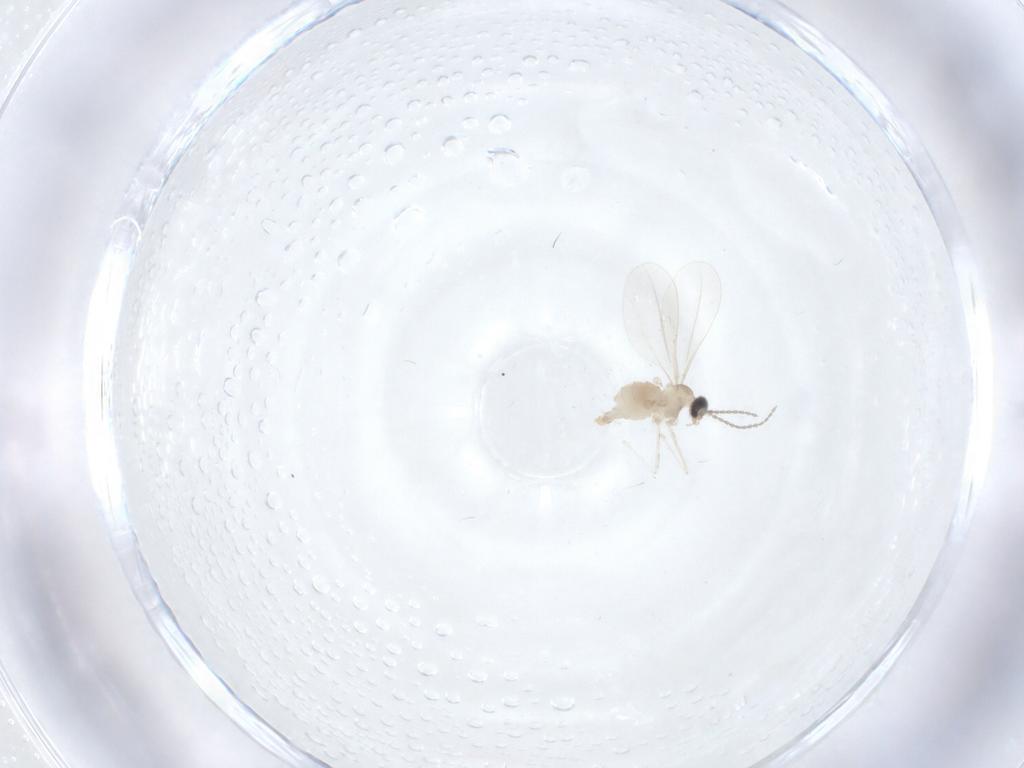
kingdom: Animalia
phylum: Arthropoda
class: Insecta
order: Diptera
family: Cecidomyiidae
